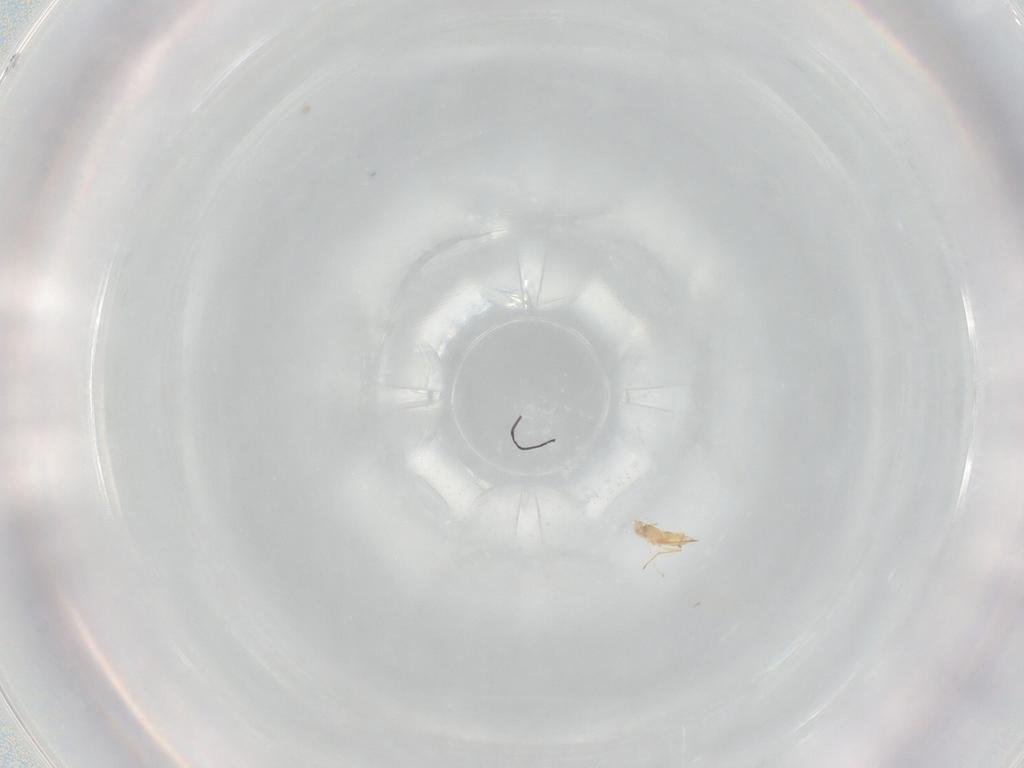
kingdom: Animalia
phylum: Arthropoda
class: Insecta
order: Hymenoptera
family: Mymaridae
